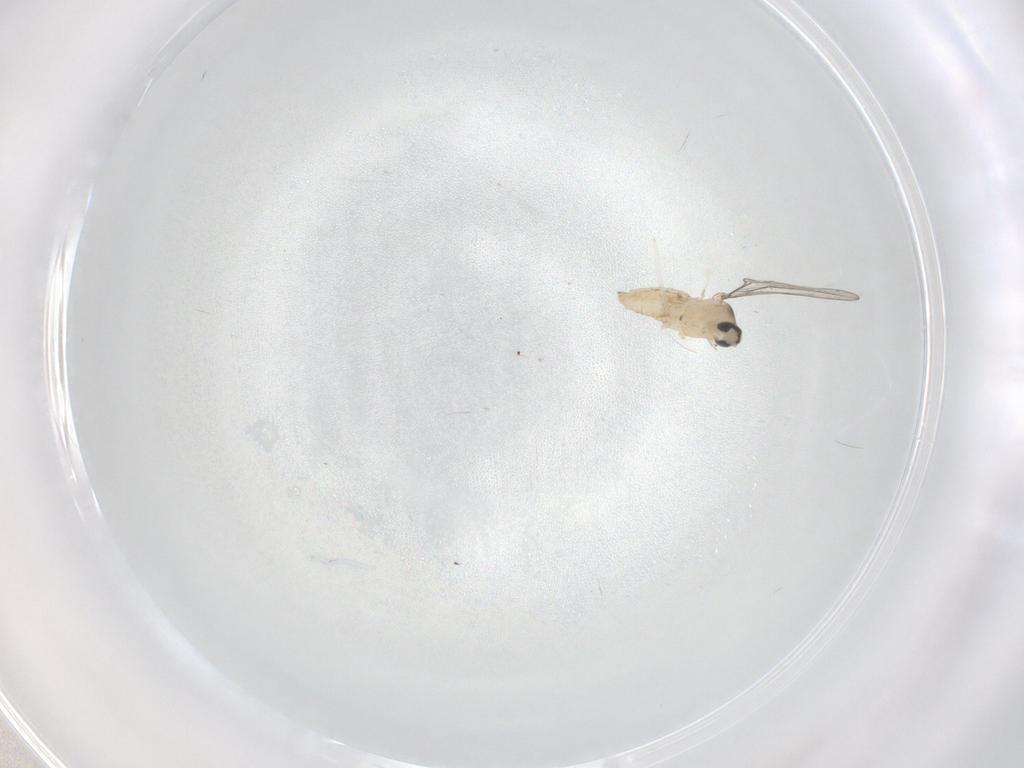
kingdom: Animalia
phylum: Arthropoda
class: Insecta
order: Diptera
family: Cecidomyiidae
